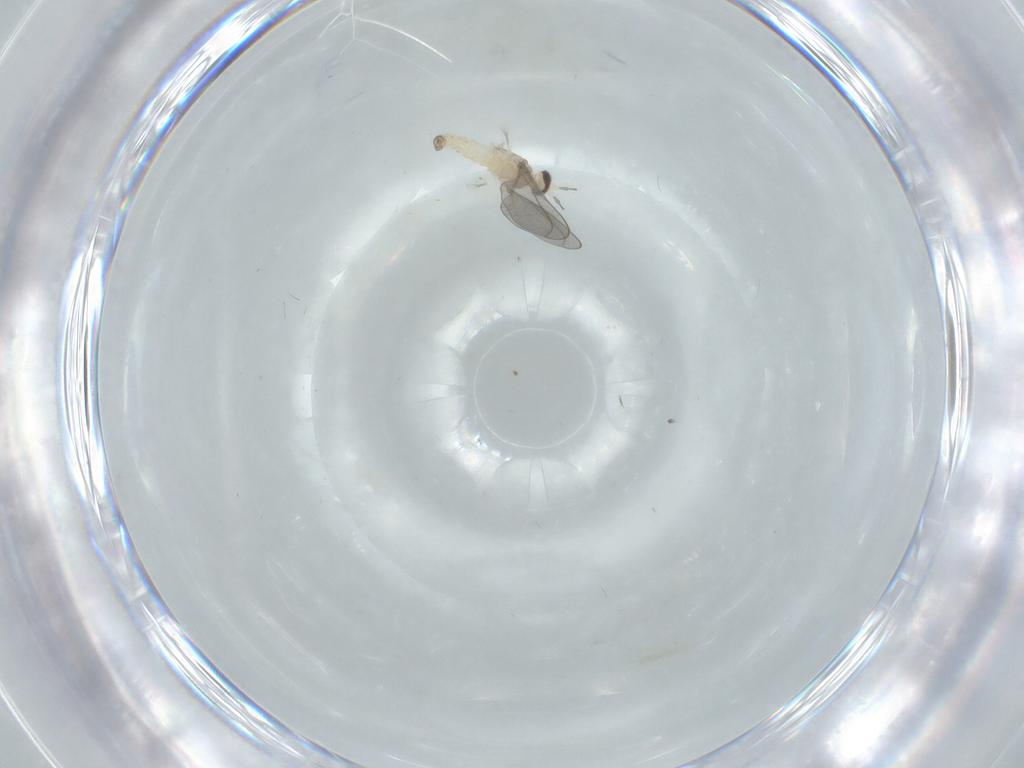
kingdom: Animalia
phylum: Arthropoda
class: Insecta
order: Diptera
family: Cecidomyiidae
